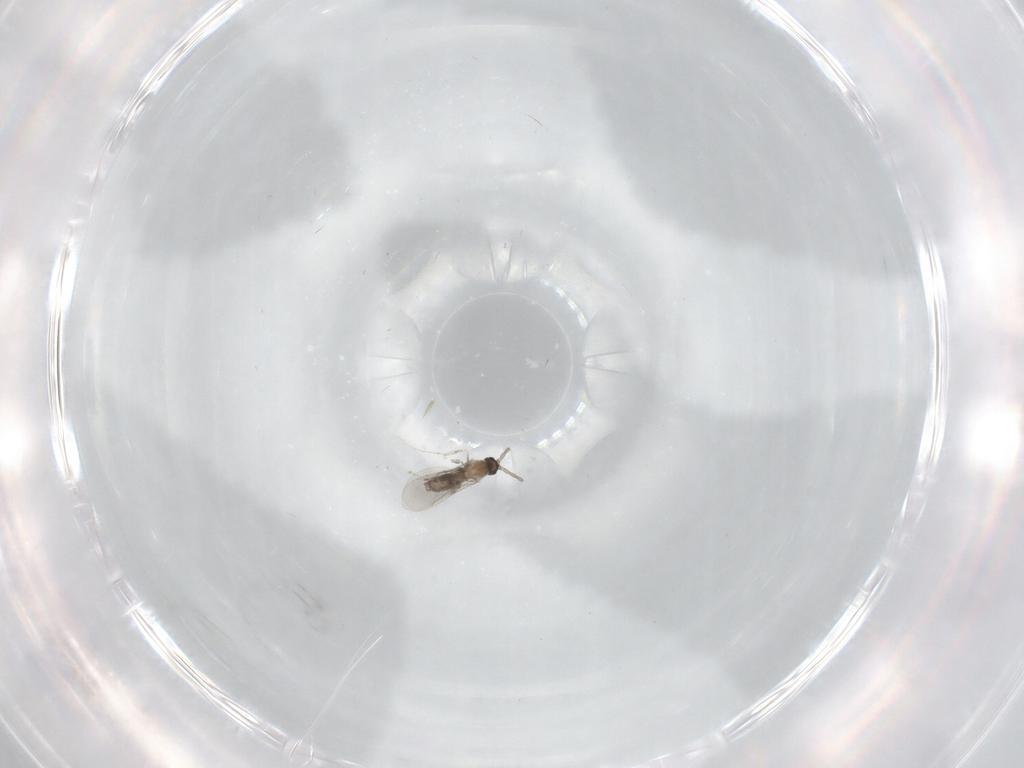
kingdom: Animalia
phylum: Arthropoda
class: Insecta
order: Diptera
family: Cecidomyiidae
